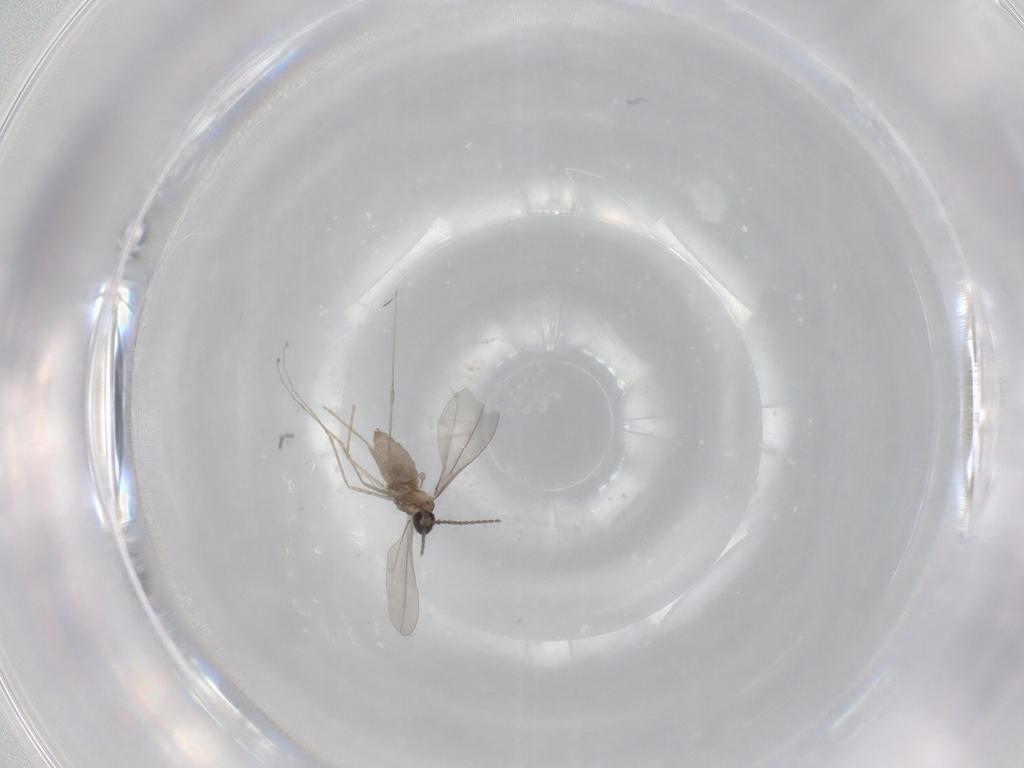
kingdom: Animalia
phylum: Arthropoda
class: Insecta
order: Diptera
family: Cecidomyiidae
